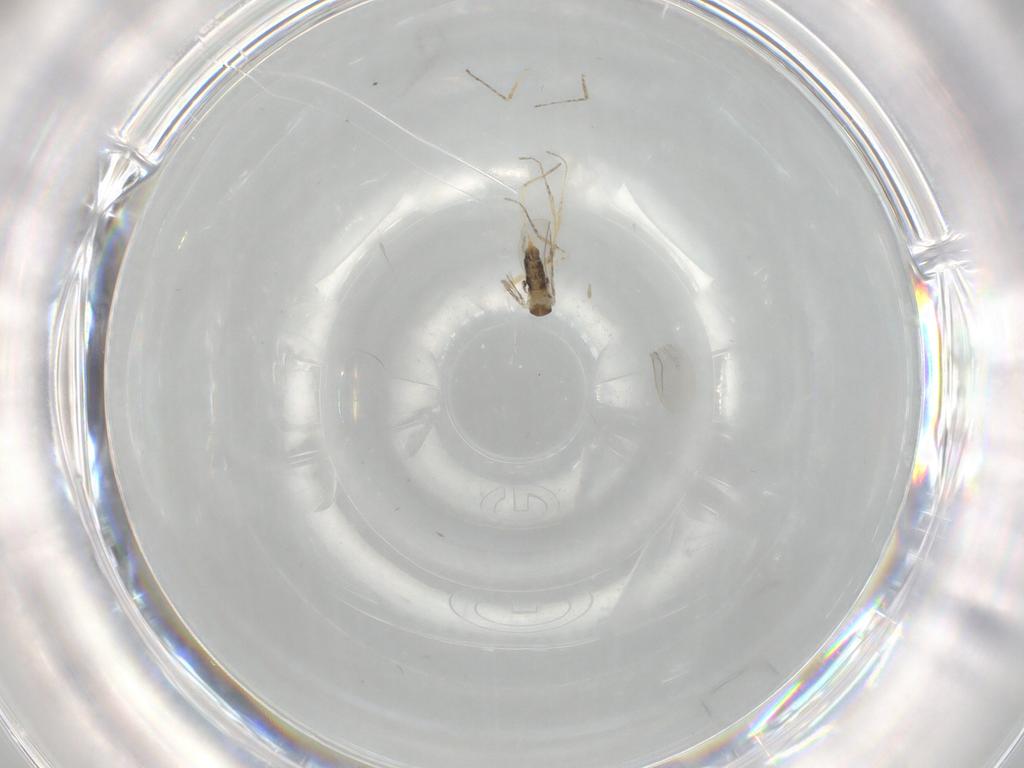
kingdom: Animalia
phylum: Arthropoda
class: Insecta
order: Diptera
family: Cecidomyiidae
